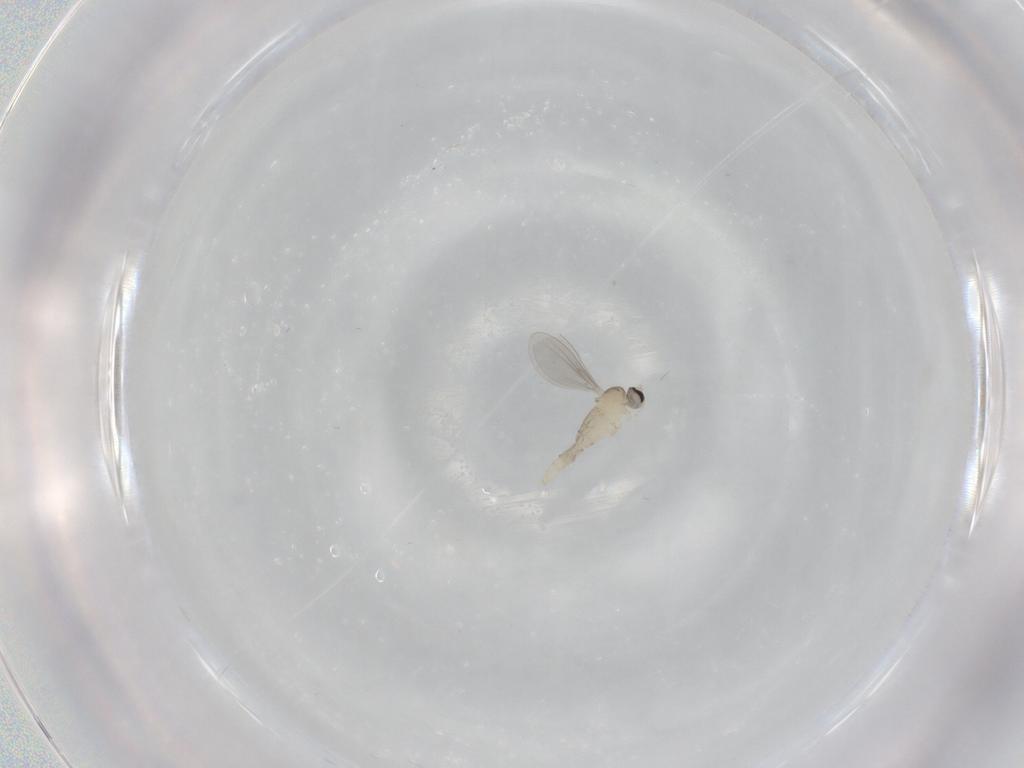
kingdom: Animalia
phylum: Arthropoda
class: Insecta
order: Diptera
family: Cecidomyiidae
